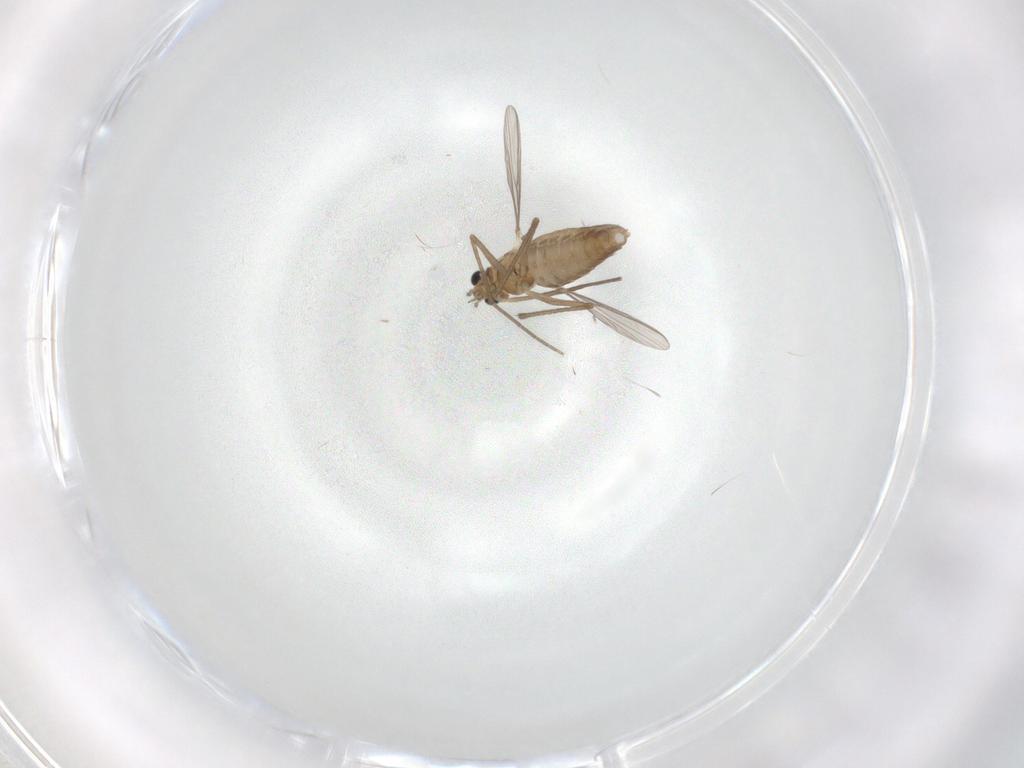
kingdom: Animalia
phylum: Arthropoda
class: Insecta
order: Diptera
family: Chironomidae
